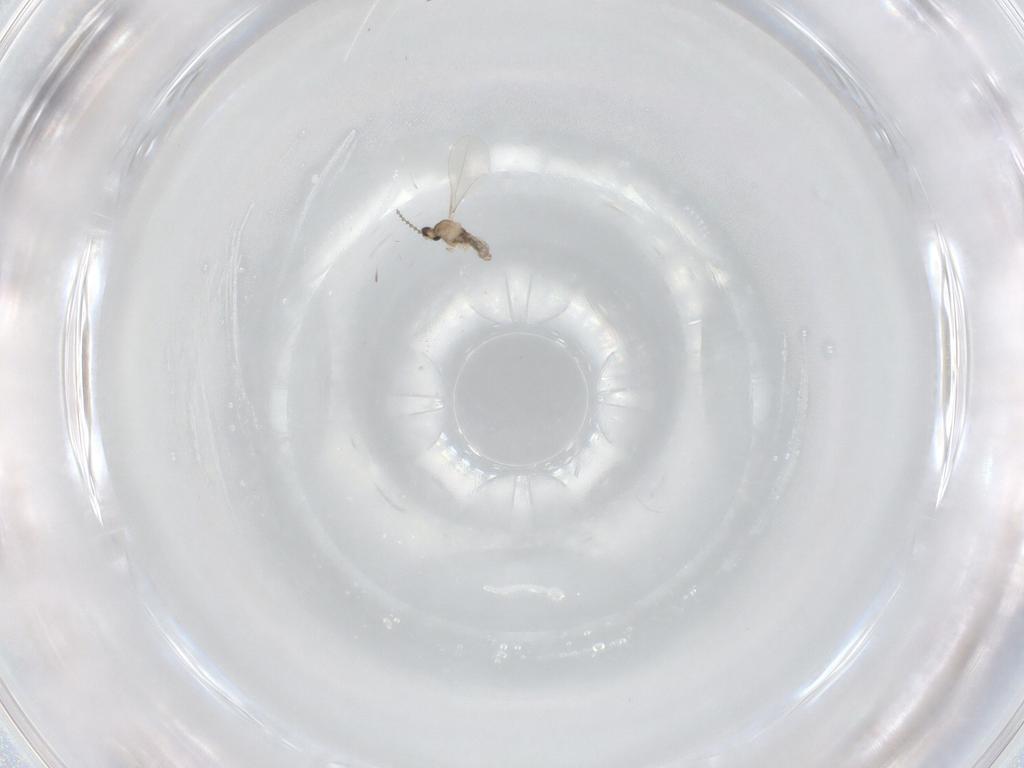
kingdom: Animalia
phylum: Arthropoda
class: Insecta
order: Diptera
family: Cecidomyiidae
